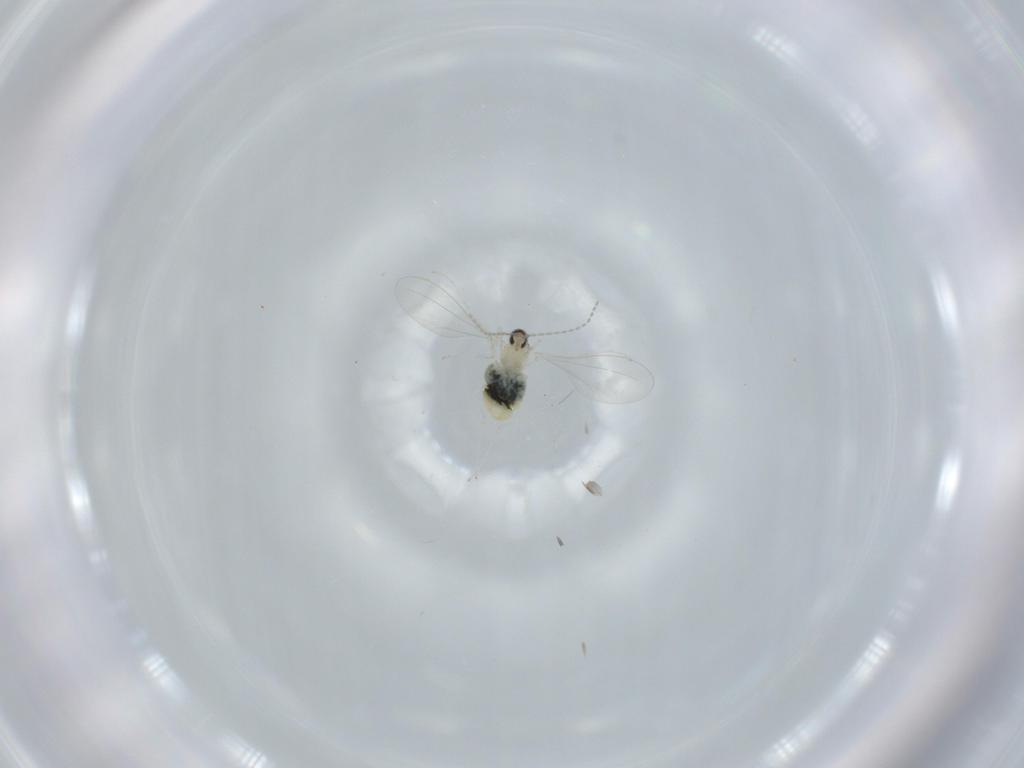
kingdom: Animalia
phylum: Arthropoda
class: Insecta
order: Diptera
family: Cecidomyiidae
